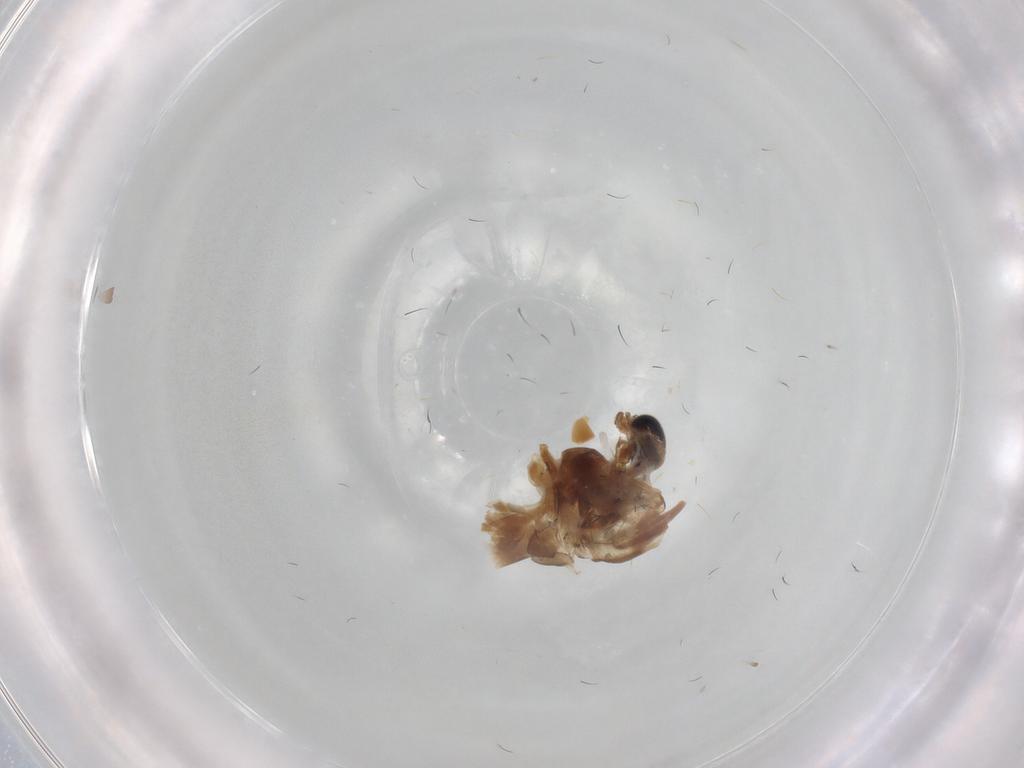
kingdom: Animalia
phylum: Arthropoda
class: Insecta
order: Diptera
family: Chironomidae
